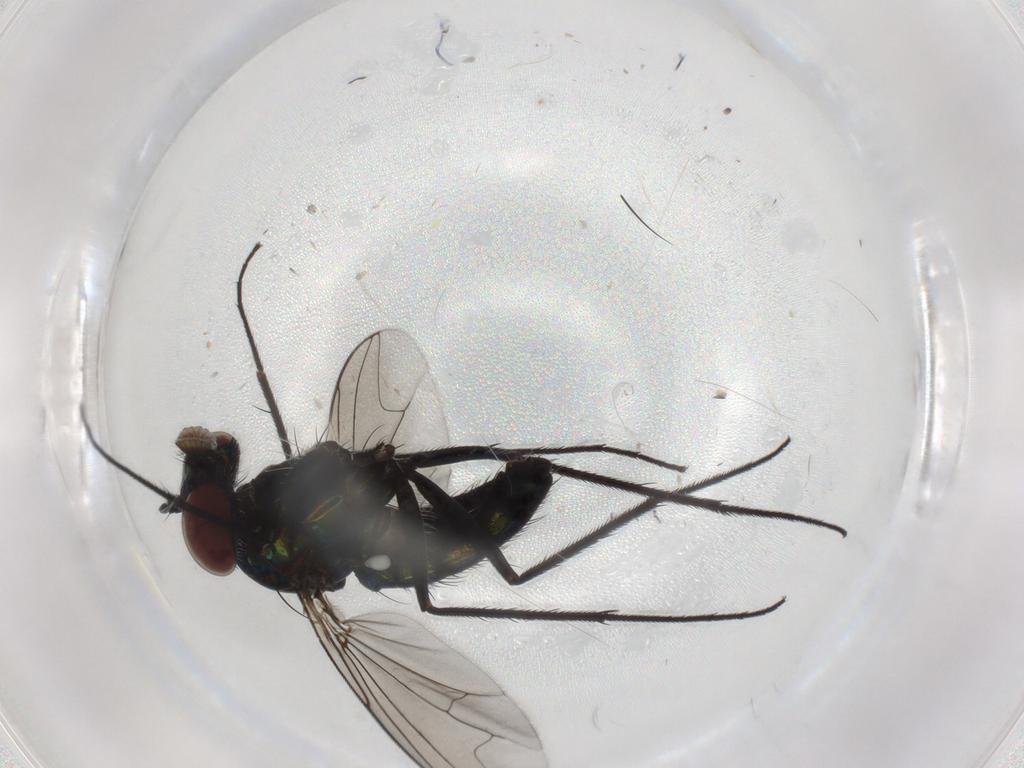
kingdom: Animalia
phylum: Arthropoda
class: Insecta
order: Diptera
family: Dolichopodidae
